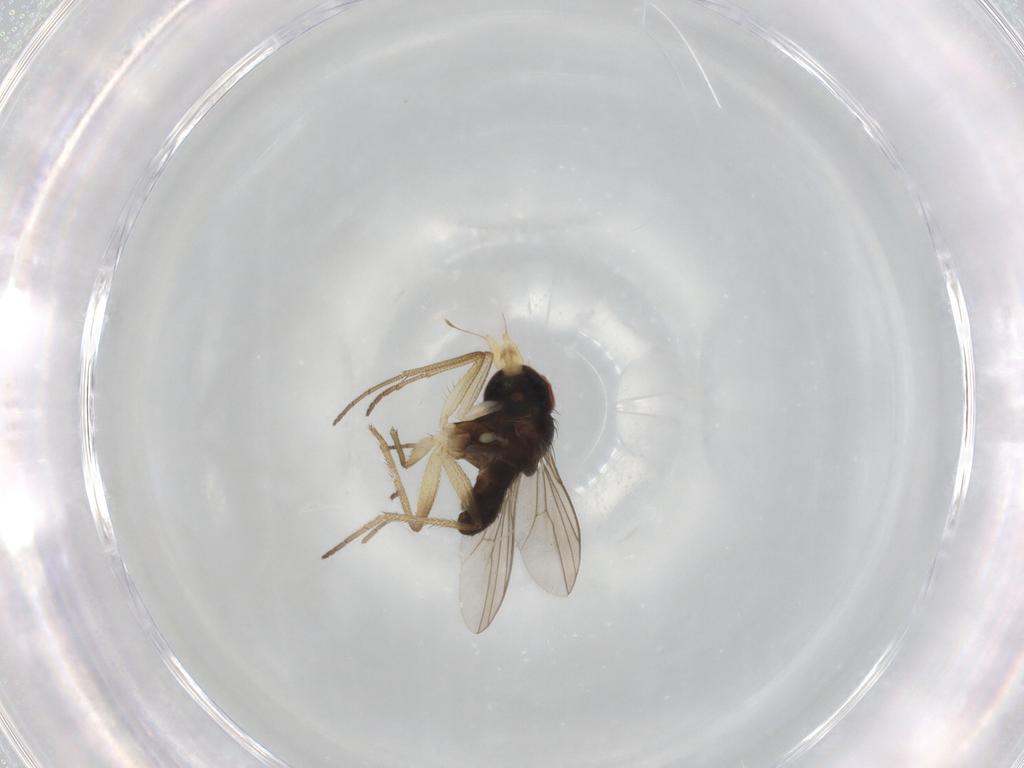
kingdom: Animalia
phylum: Arthropoda
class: Insecta
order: Diptera
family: Dolichopodidae
